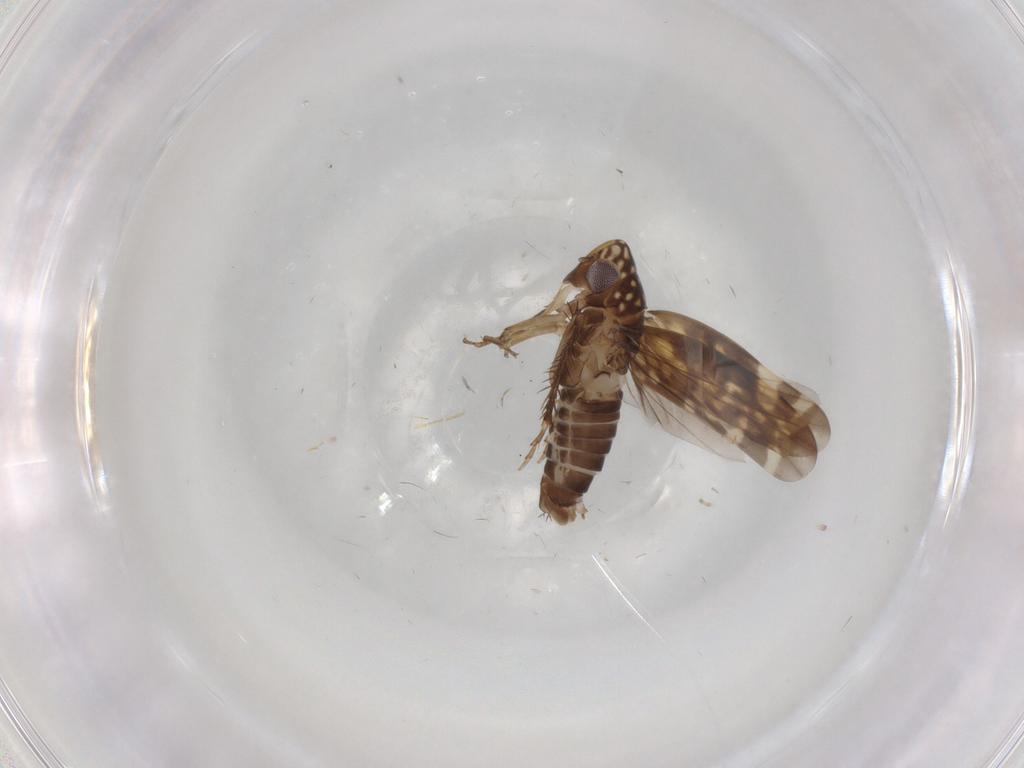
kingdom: Animalia
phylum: Arthropoda
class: Insecta
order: Hemiptera
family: Cicadellidae
